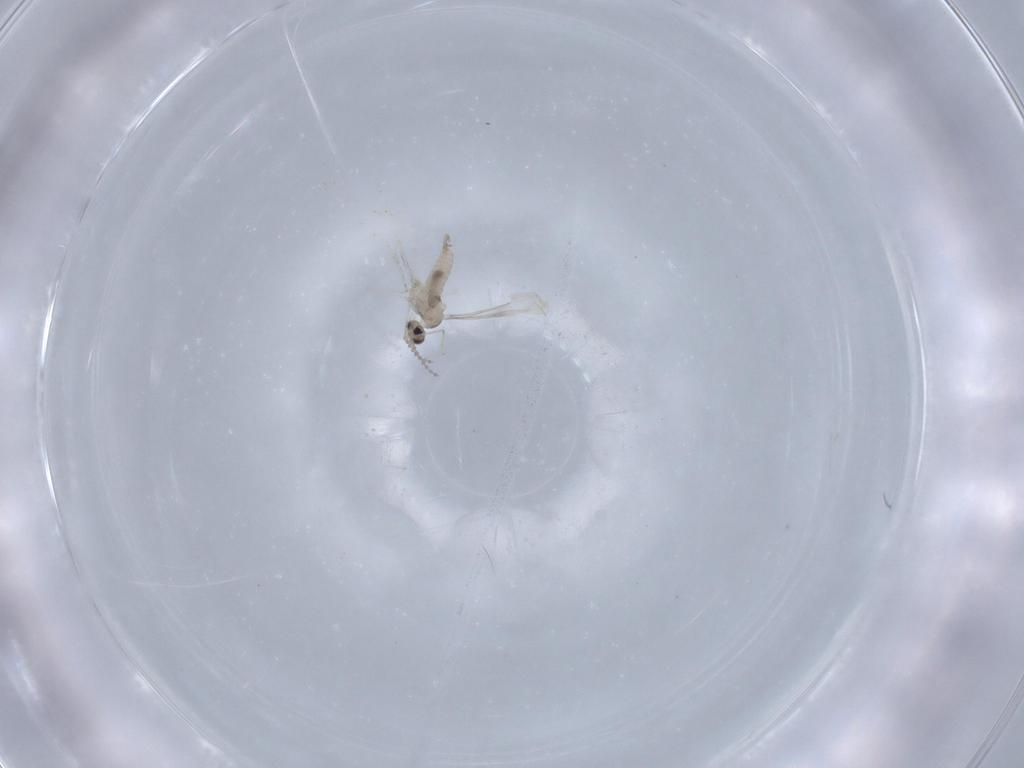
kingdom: Animalia
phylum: Arthropoda
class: Insecta
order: Diptera
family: Cecidomyiidae
